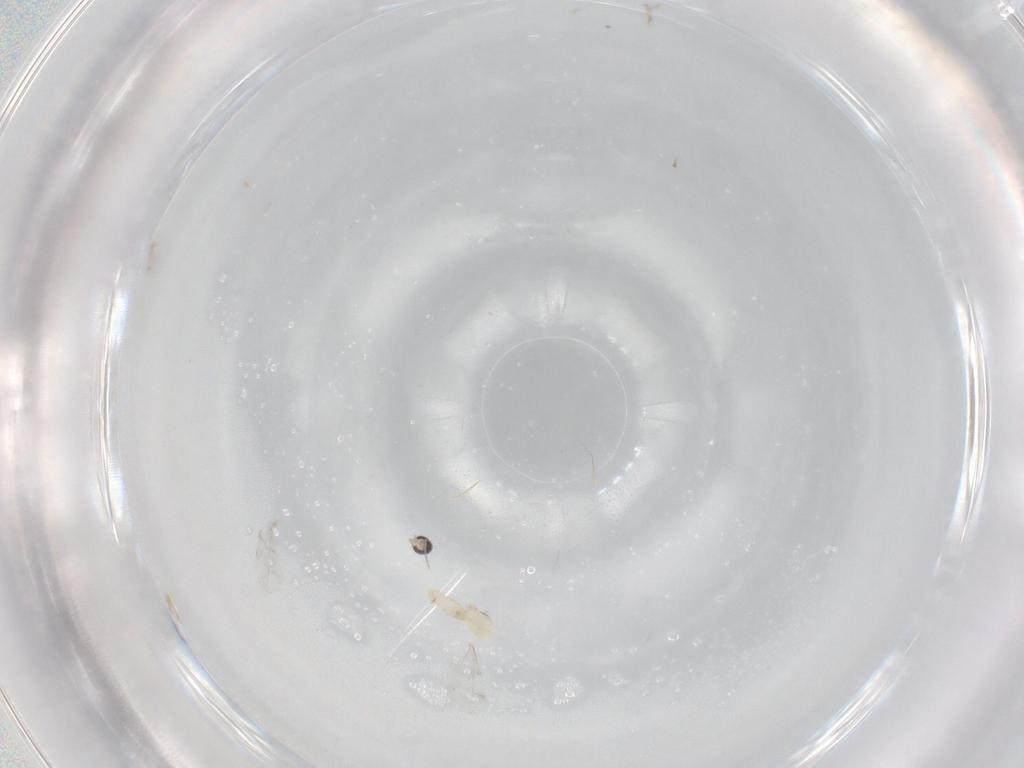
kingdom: Animalia
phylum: Arthropoda
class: Insecta
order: Diptera
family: Cecidomyiidae
